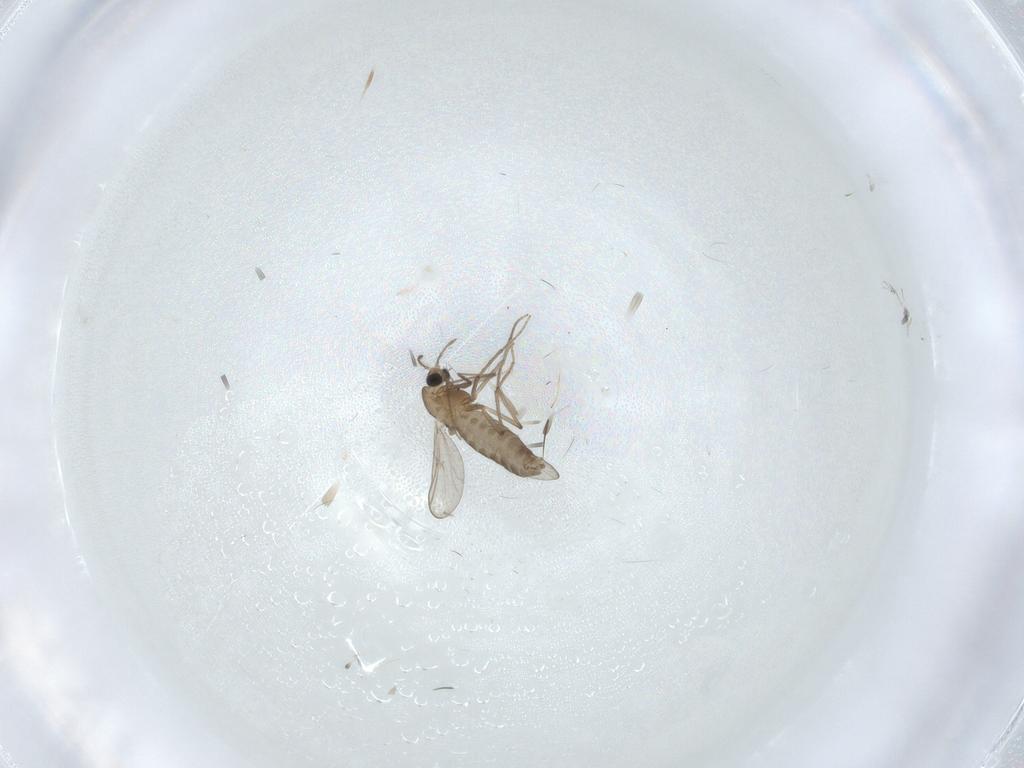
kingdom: Animalia
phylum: Arthropoda
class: Insecta
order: Diptera
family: Chironomidae
